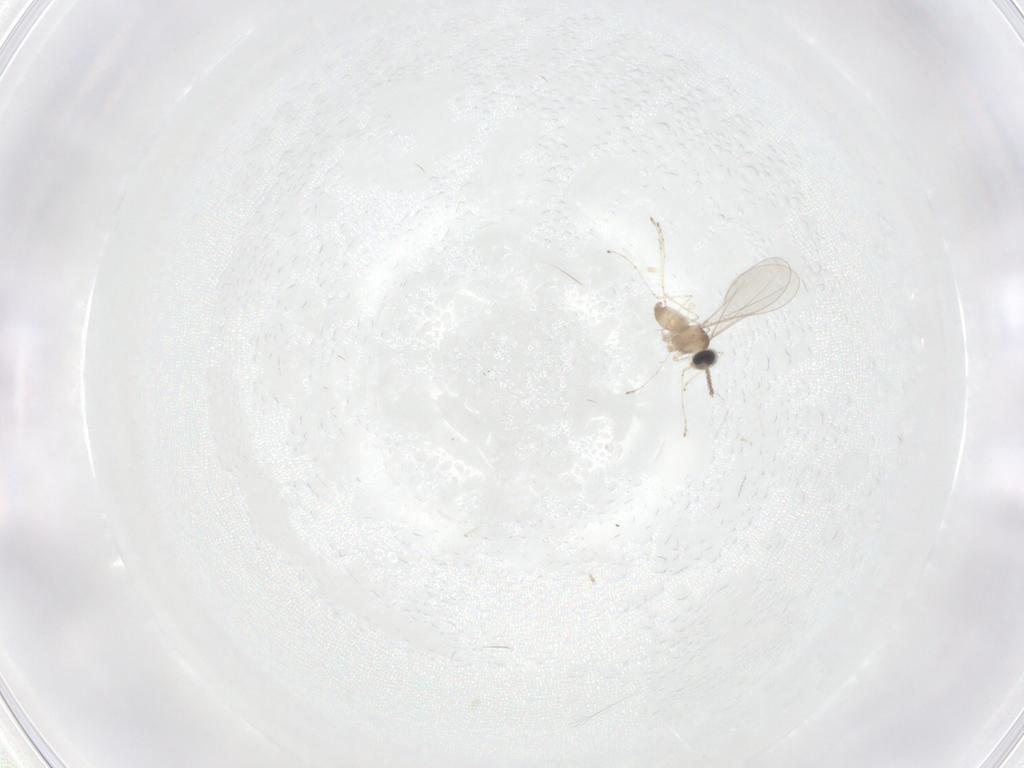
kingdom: Animalia
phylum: Arthropoda
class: Insecta
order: Diptera
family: Cecidomyiidae
